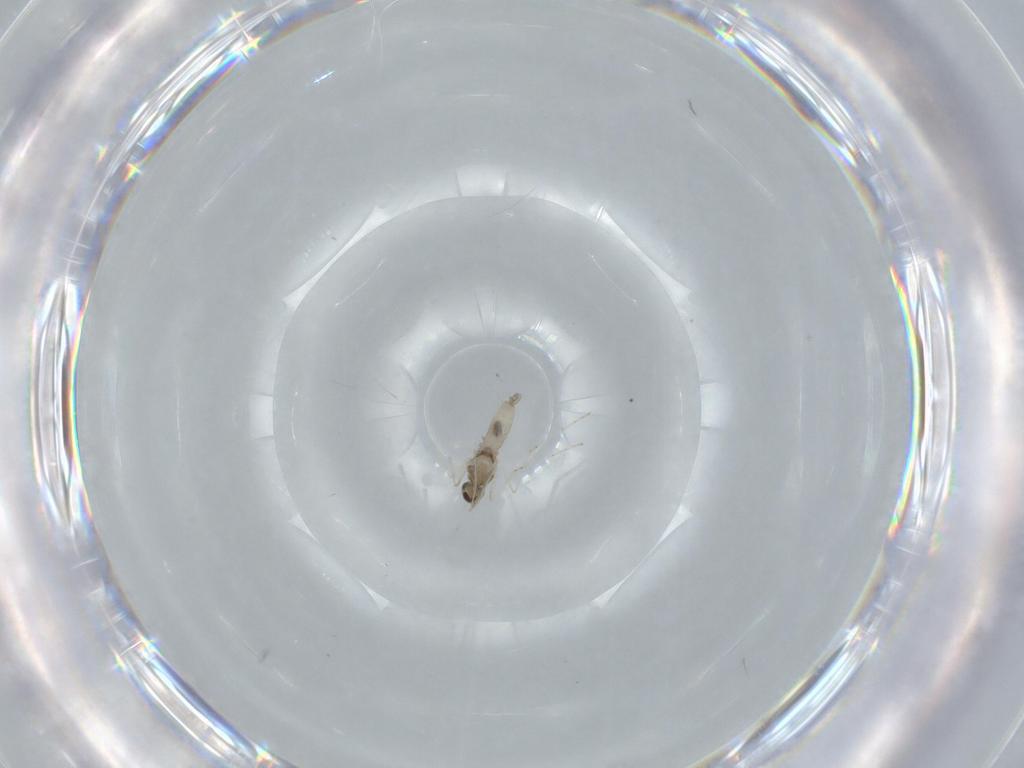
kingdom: Animalia
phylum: Arthropoda
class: Insecta
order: Diptera
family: Cecidomyiidae
